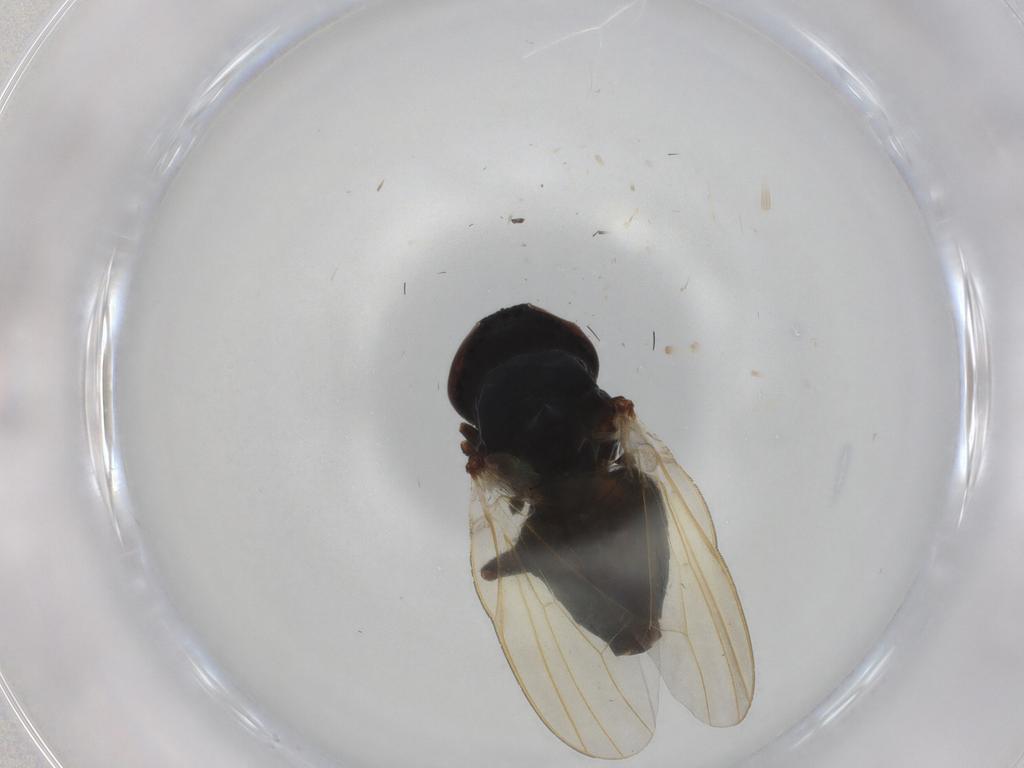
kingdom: Animalia
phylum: Arthropoda
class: Insecta
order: Diptera
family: Lonchaeidae
